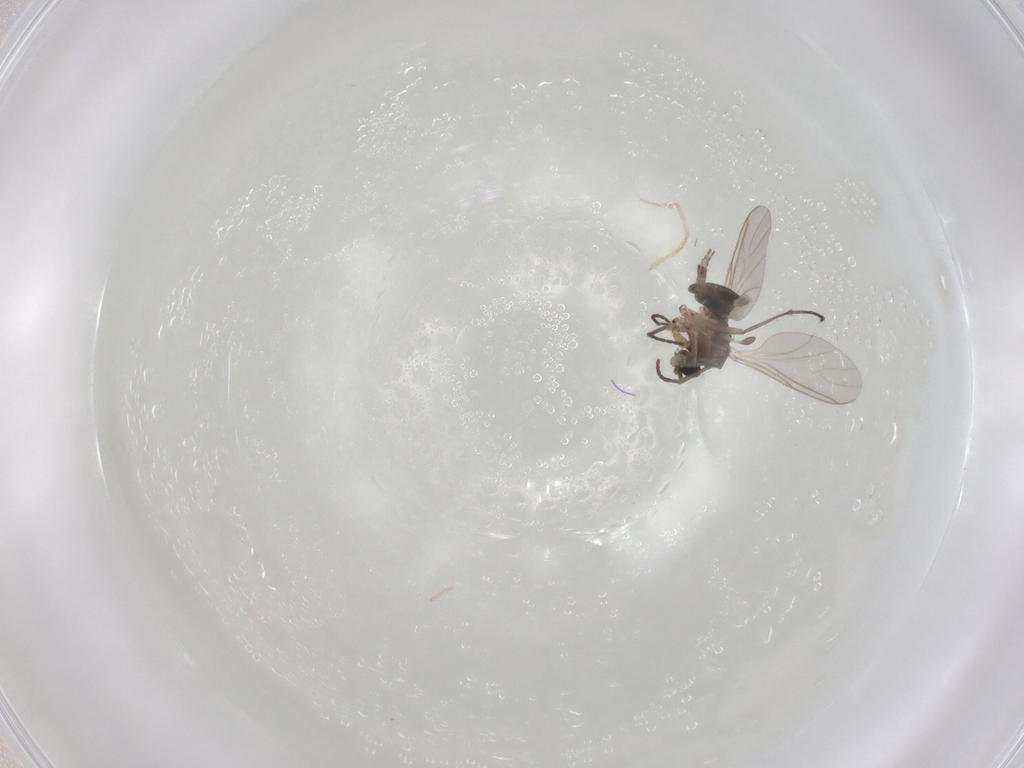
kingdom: Animalia
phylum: Arthropoda
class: Insecta
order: Diptera
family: Sciaridae
